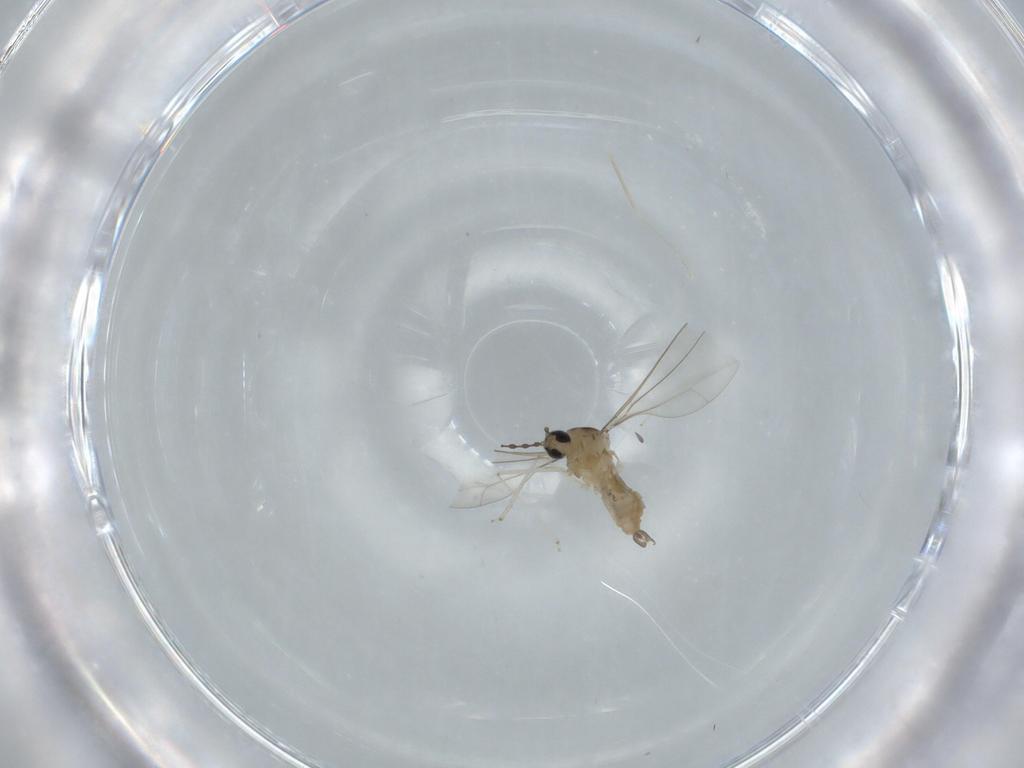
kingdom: Animalia
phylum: Arthropoda
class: Insecta
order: Diptera
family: Cecidomyiidae
